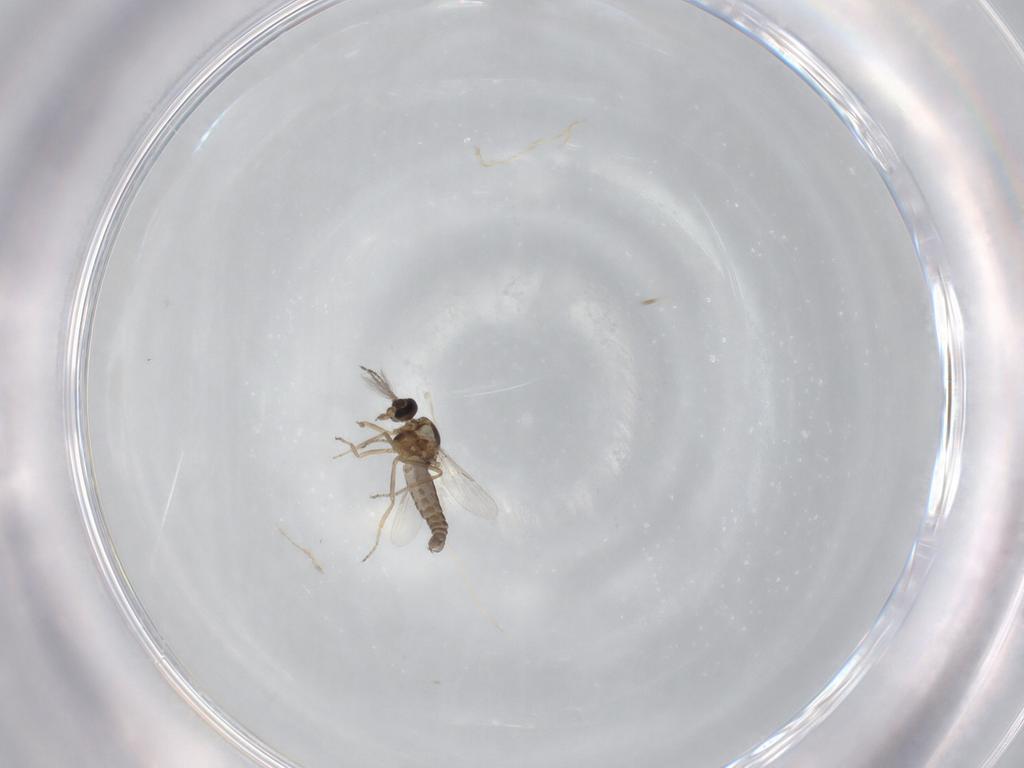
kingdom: Animalia
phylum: Arthropoda
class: Insecta
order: Diptera
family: Ceratopogonidae
